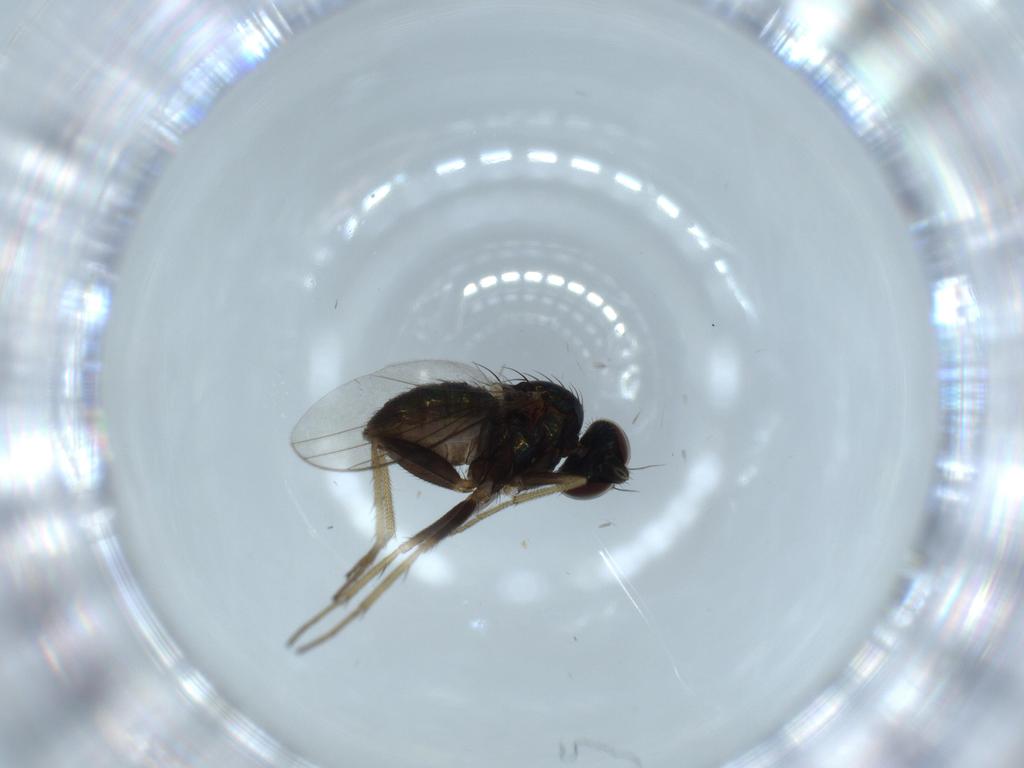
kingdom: Animalia
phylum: Arthropoda
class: Insecta
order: Diptera
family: Ceratopogonidae
